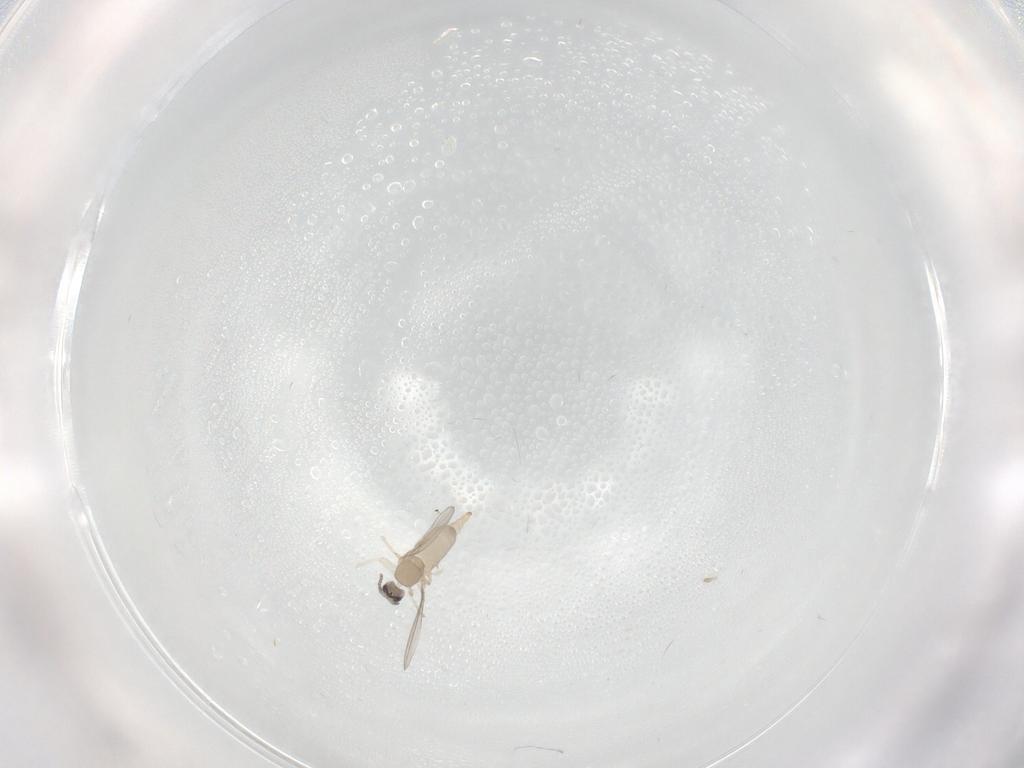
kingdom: Animalia
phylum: Arthropoda
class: Insecta
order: Diptera
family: Cecidomyiidae
